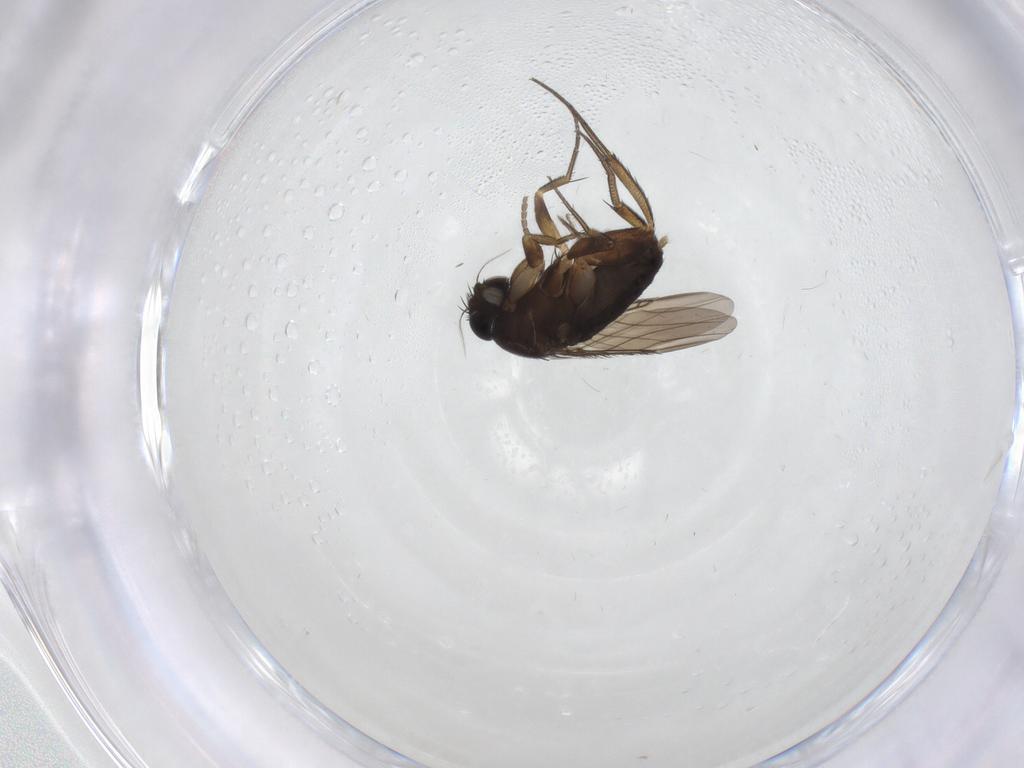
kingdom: Animalia
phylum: Arthropoda
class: Insecta
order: Diptera
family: Phoridae
